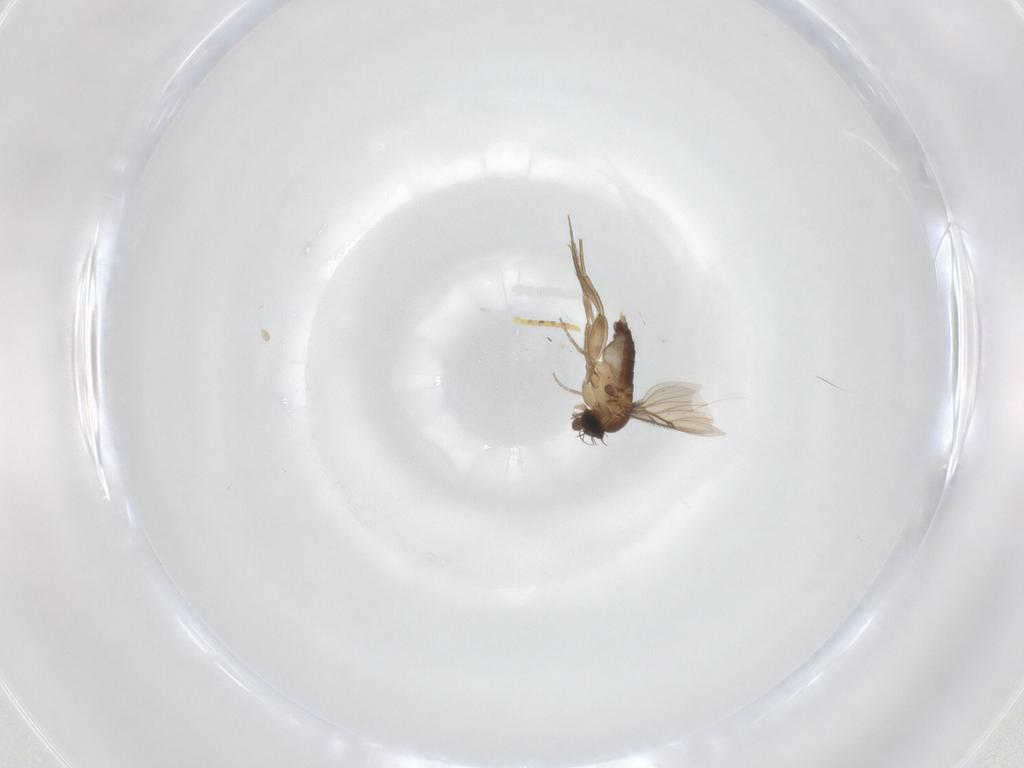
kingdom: Animalia
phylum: Arthropoda
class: Insecta
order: Diptera
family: Phoridae
